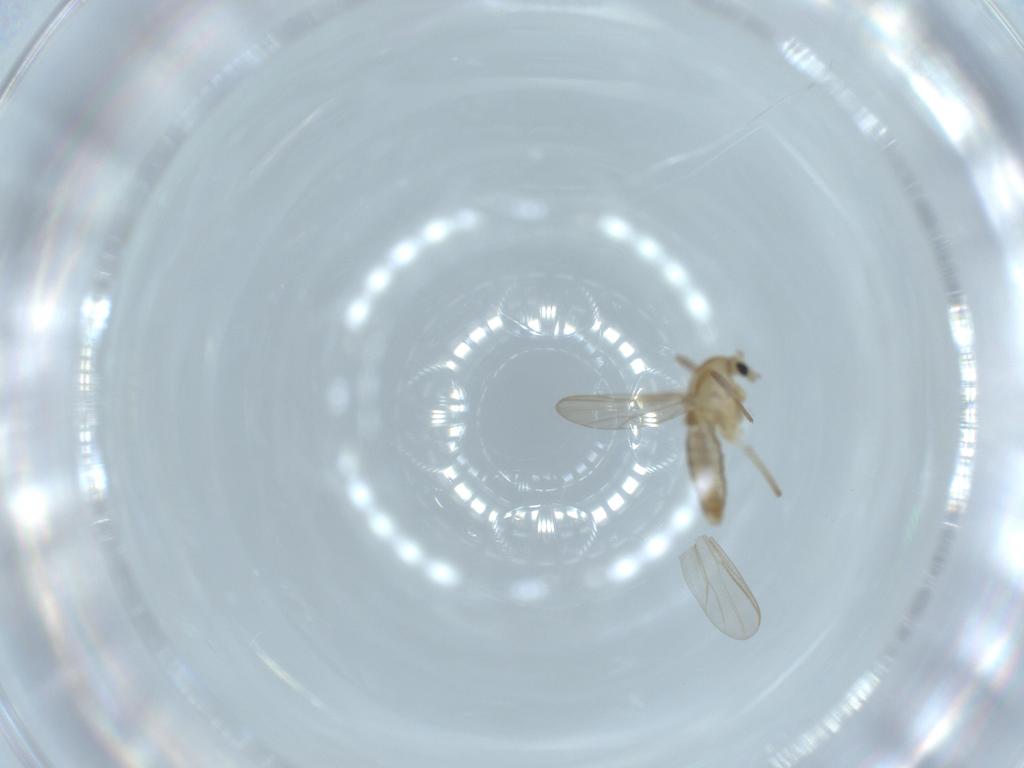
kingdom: Animalia
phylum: Arthropoda
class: Insecta
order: Diptera
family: Chironomidae
